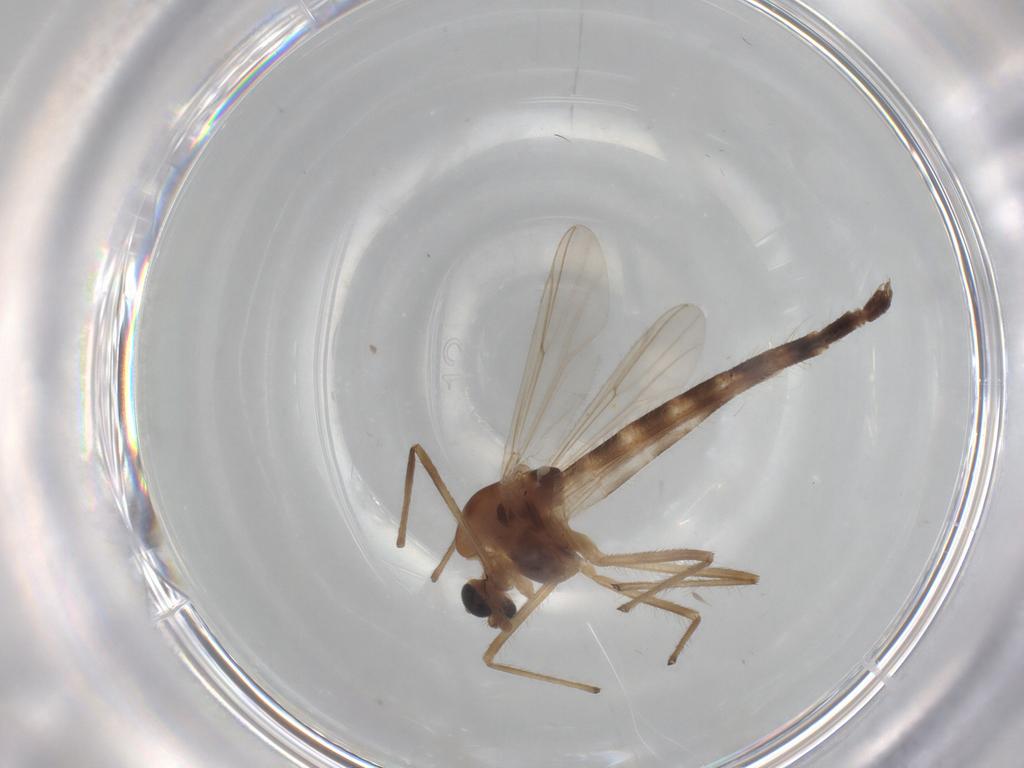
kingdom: Animalia
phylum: Arthropoda
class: Insecta
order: Diptera
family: Chironomidae
